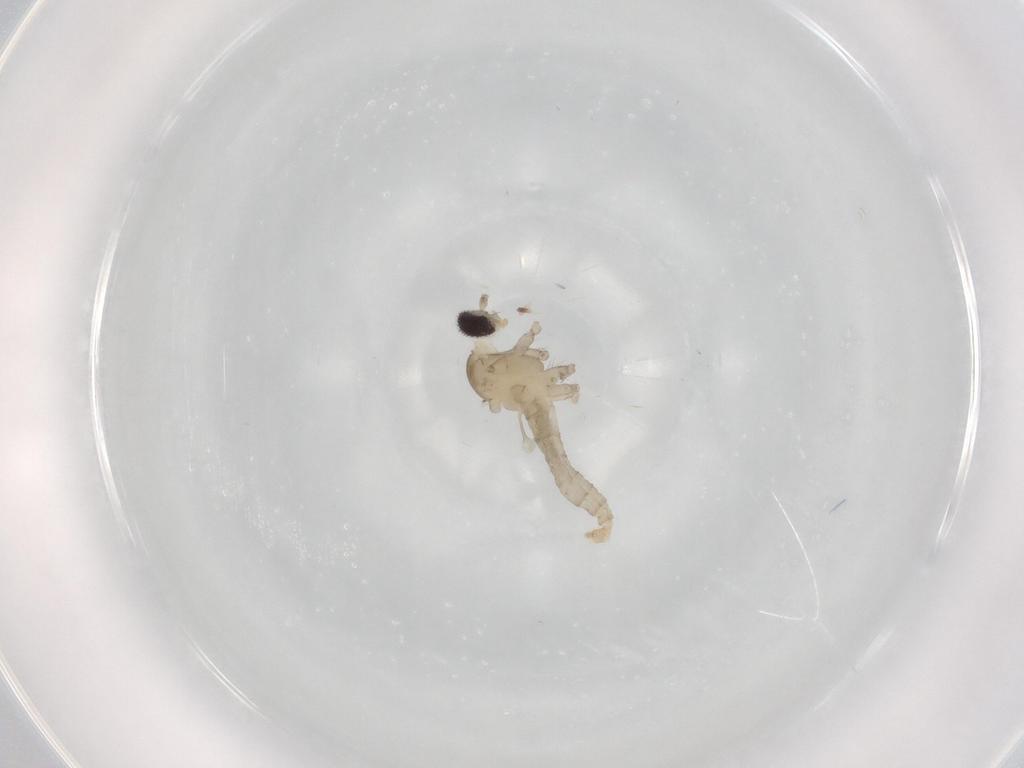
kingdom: Animalia
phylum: Arthropoda
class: Insecta
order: Diptera
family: Cecidomyiidae
